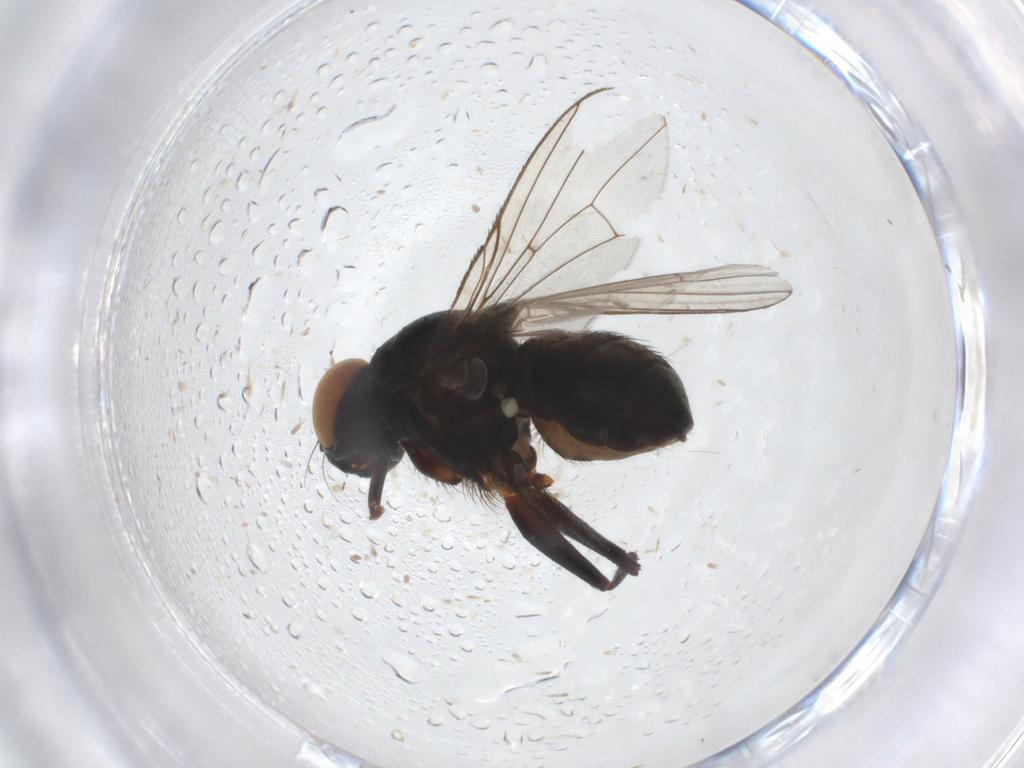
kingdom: Animalia
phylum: Arthropoda
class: Insecta
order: Diptera
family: Muscidae
